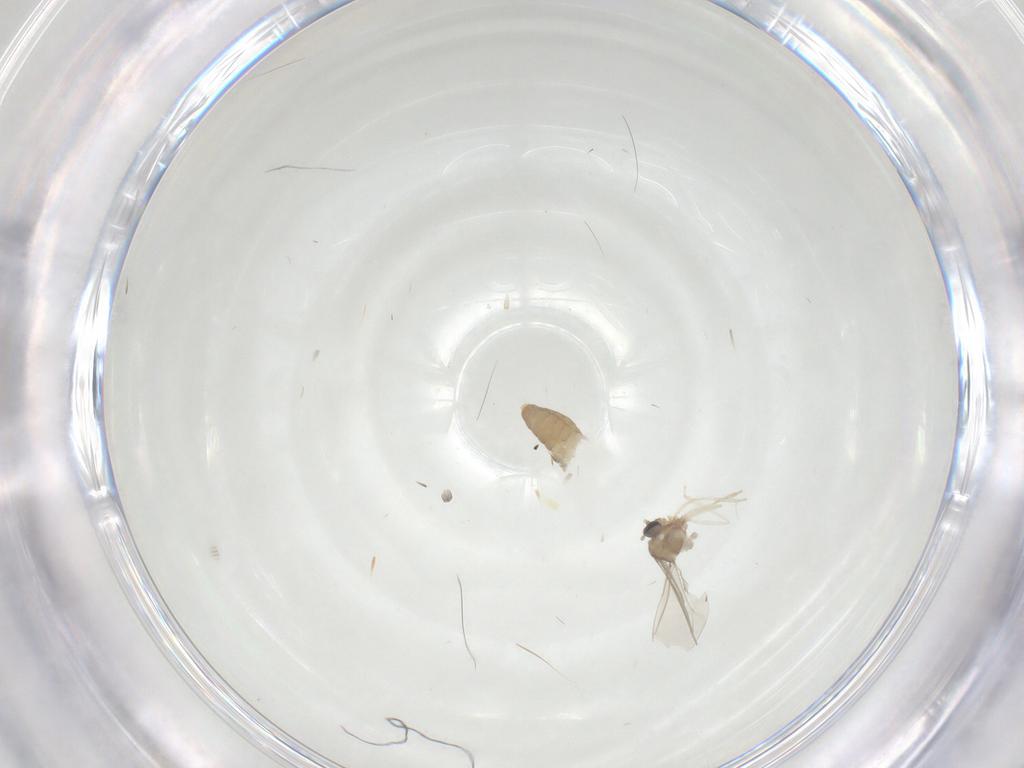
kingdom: Animalia
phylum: Arthropoda
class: Insecta
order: Diptera
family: Cecidomyiidae
